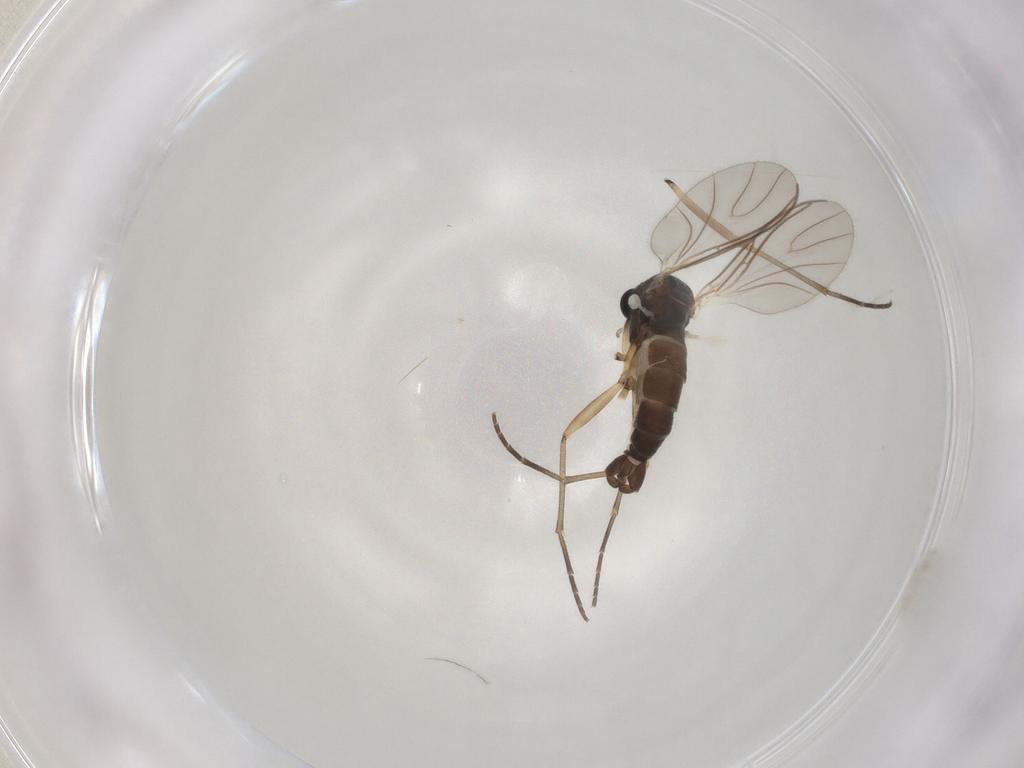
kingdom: Animalia
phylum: Arthropoda
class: Insecta
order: Diptera
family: Sciaridae
